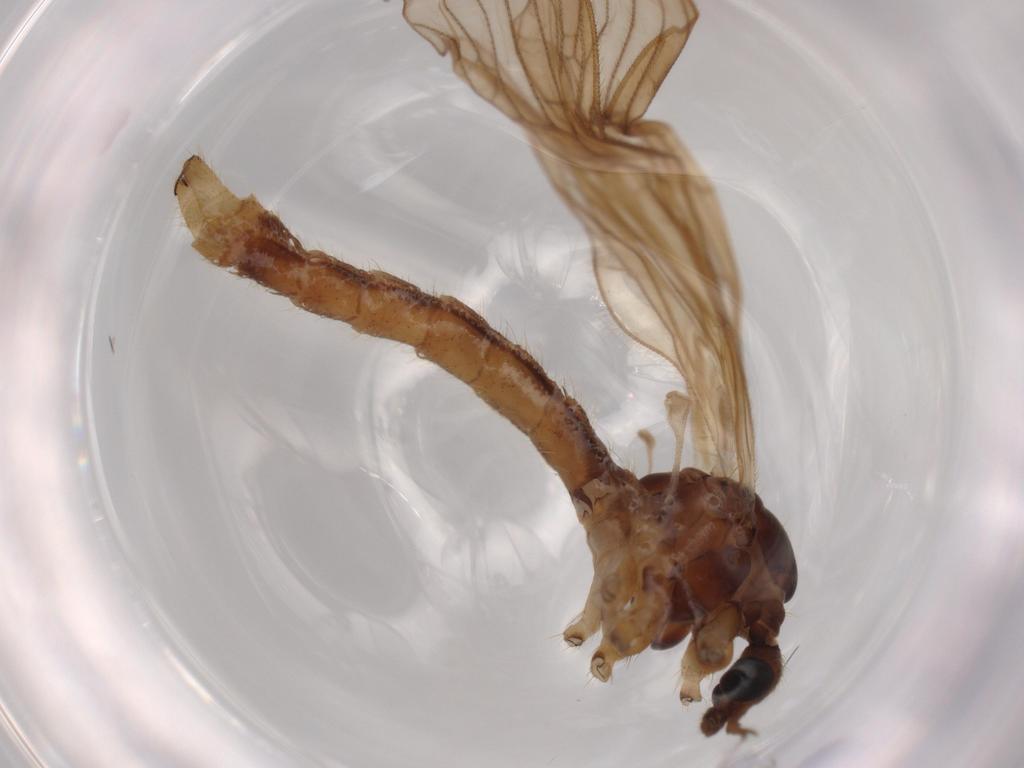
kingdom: Animalia
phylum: Arthropoda
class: Insecta
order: Diptera
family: Limoniidae
